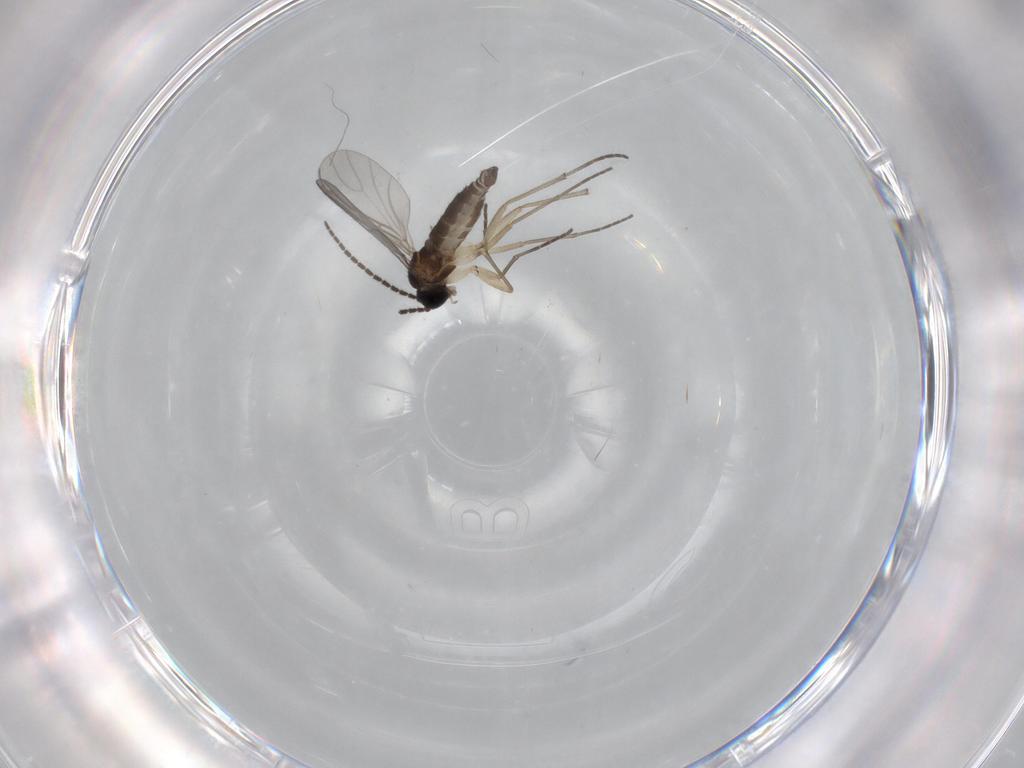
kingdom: Animalia
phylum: Arthropoda
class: Insecta
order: Diptera
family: Sciaridae
